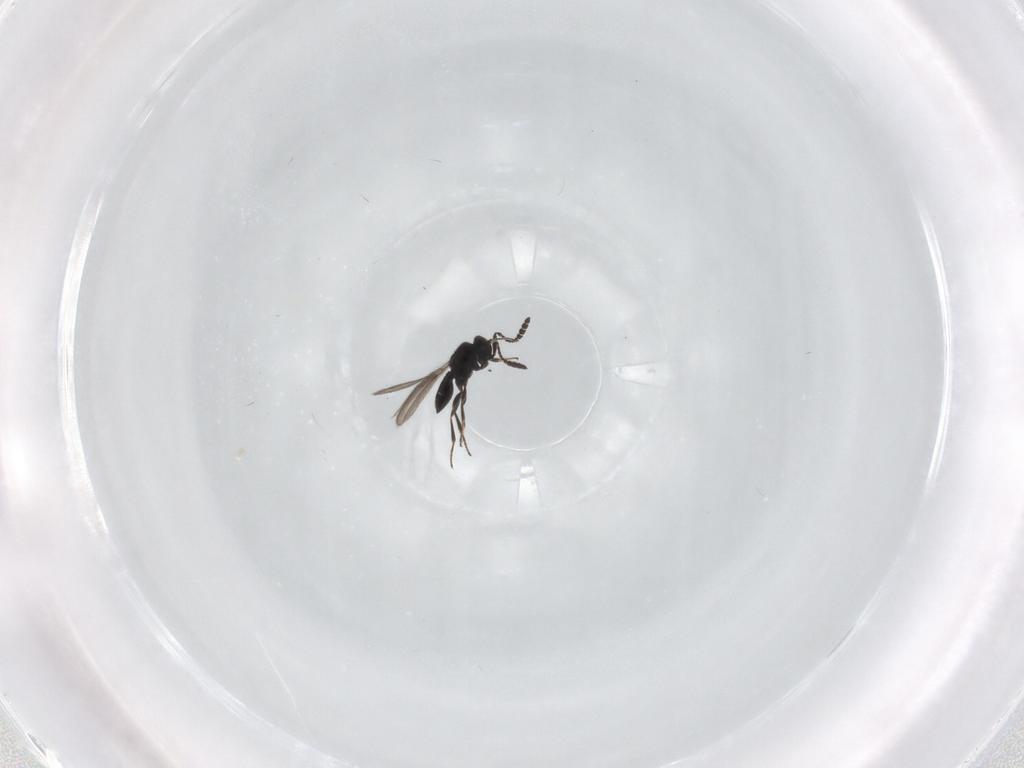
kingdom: Animalia
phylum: Arthropoda
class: Insecta
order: Hymenoptera
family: Scelionidae
